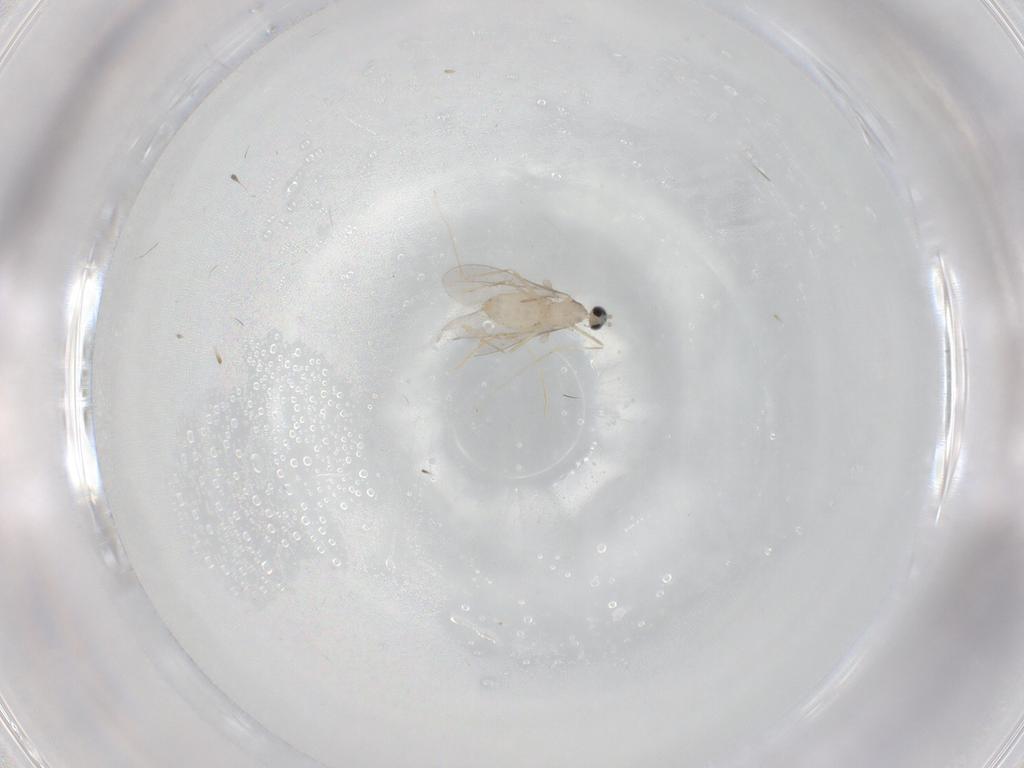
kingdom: Animalia
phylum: Arthropoda
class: Insecta
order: Diptera
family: Cecidomyiidae
